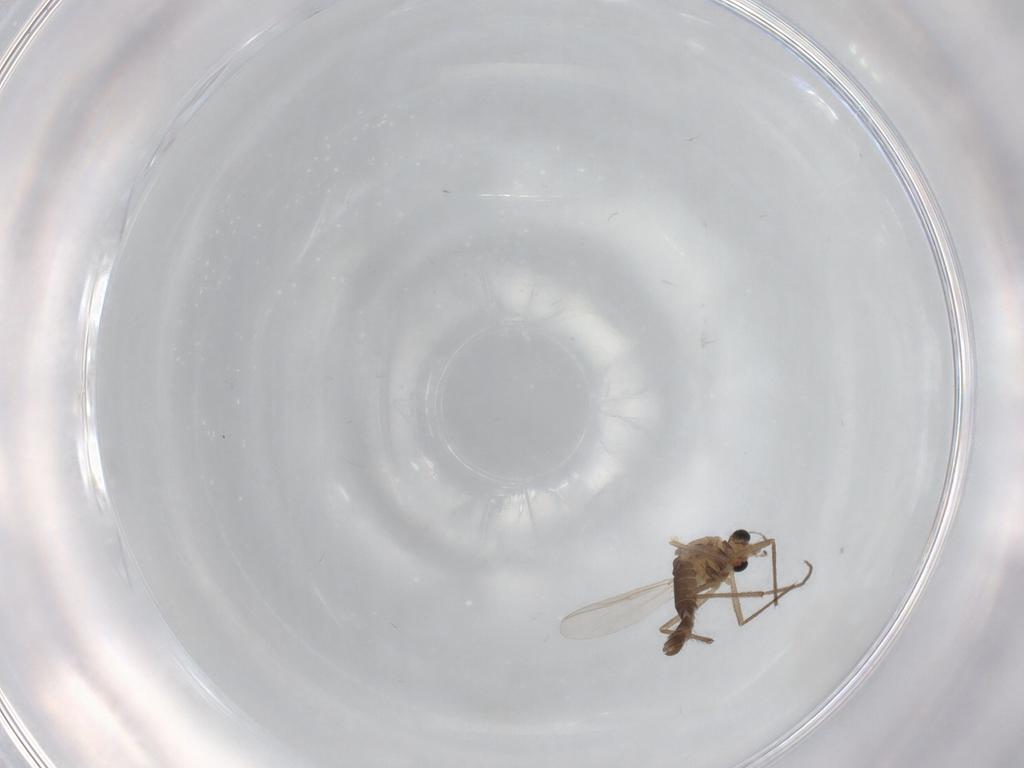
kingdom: Animalia
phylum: Arthropoda
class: Insecta
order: Diptera
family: Chironomidae
